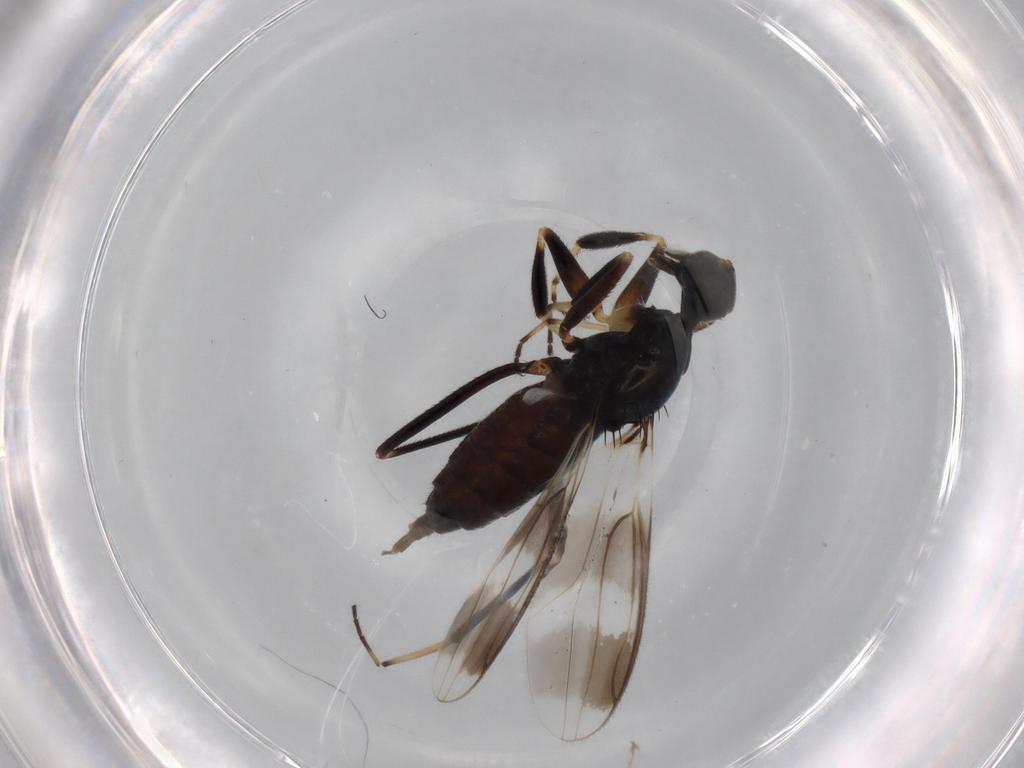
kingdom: Animalia
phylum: Arthropoda
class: Insecta
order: Diptera
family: Hybotidae
